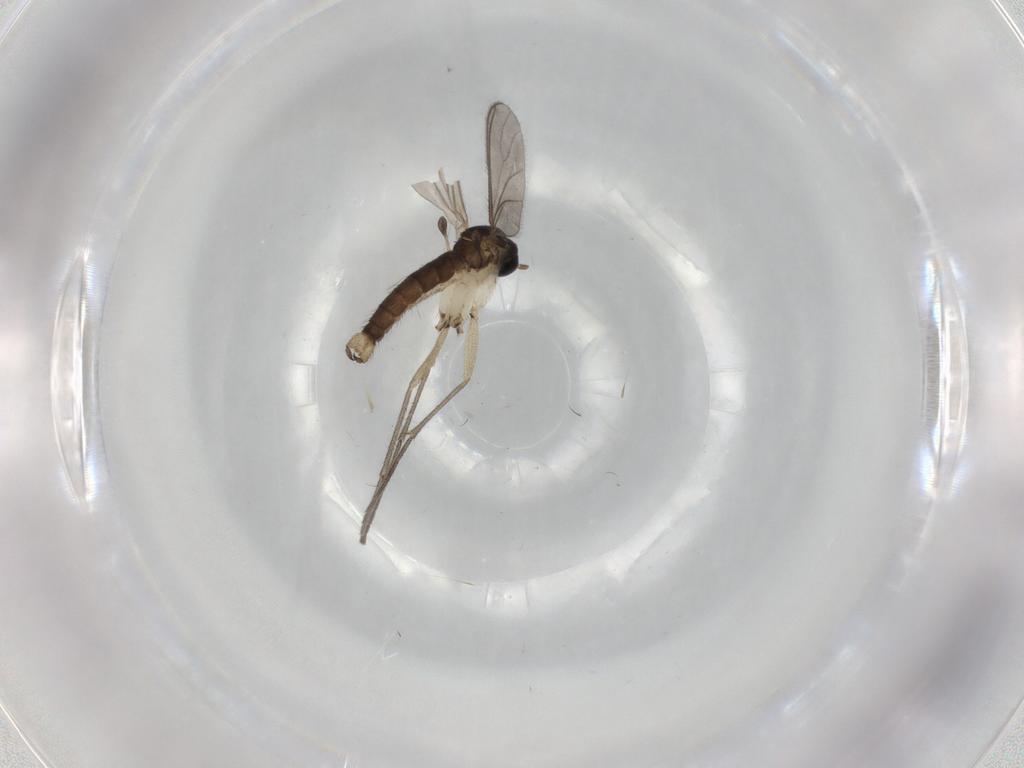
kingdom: Animalia
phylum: Arthropoda
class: Insecta
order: Diptera
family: Sciaridae
